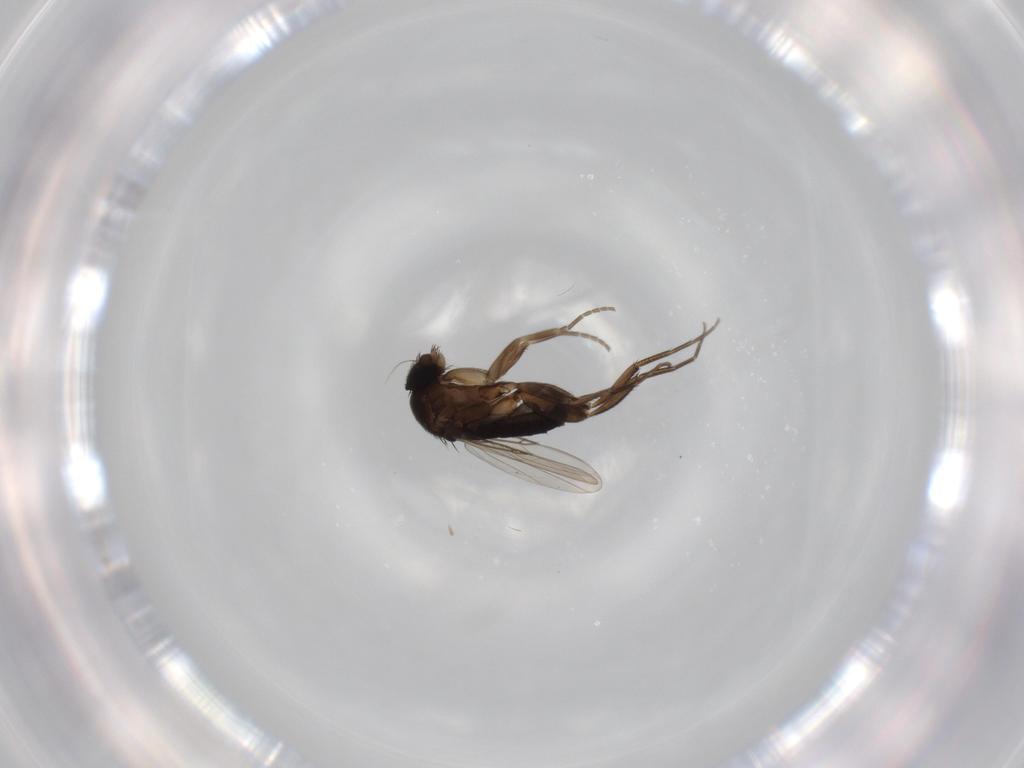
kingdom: Animalia
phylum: Arthropoda
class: Insecta
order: Diptera
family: Phoridae
